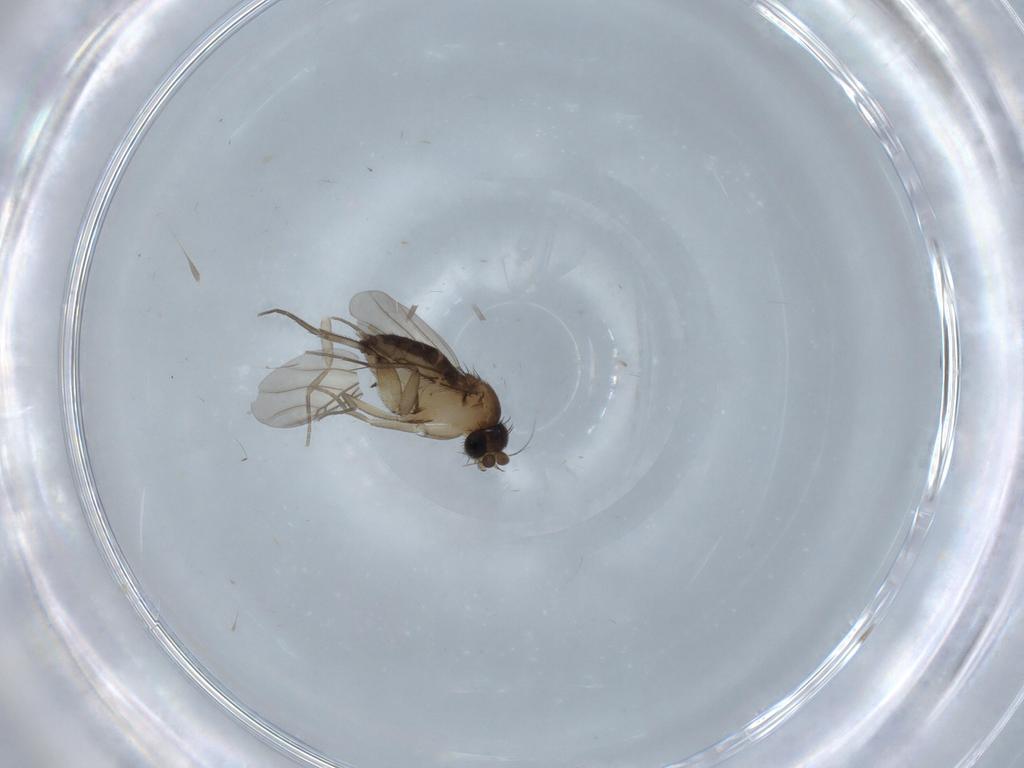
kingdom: Animalia
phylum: Arthropoda
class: Insecta
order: Diptera
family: Phoridae
